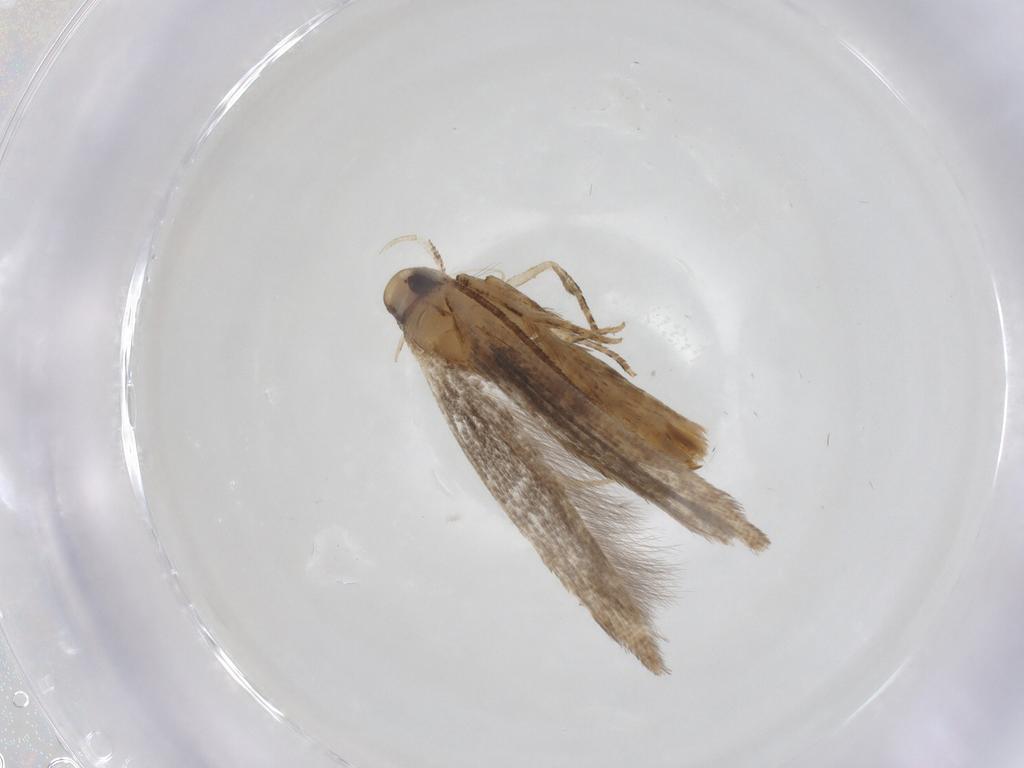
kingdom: Animalia
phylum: Arthropoda
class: Insecta
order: Lepidoptera
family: Cosmopterigidae
